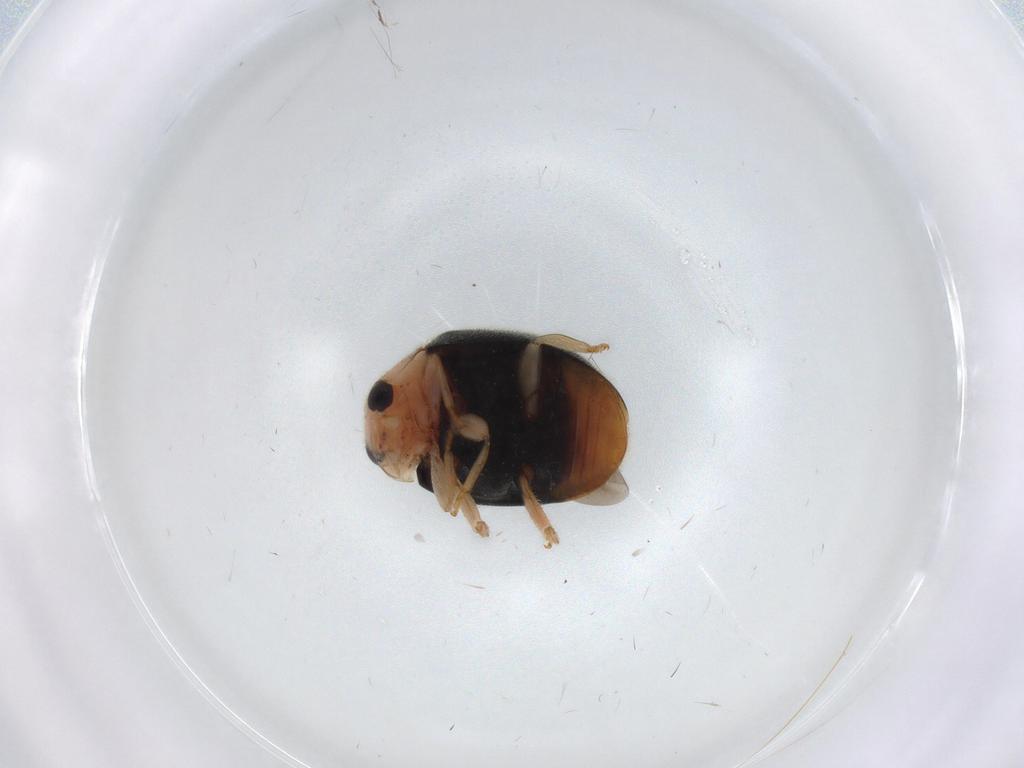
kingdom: Animalia
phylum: Arthropoda
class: Insecta
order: Coleoptera
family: Coccinellidae
